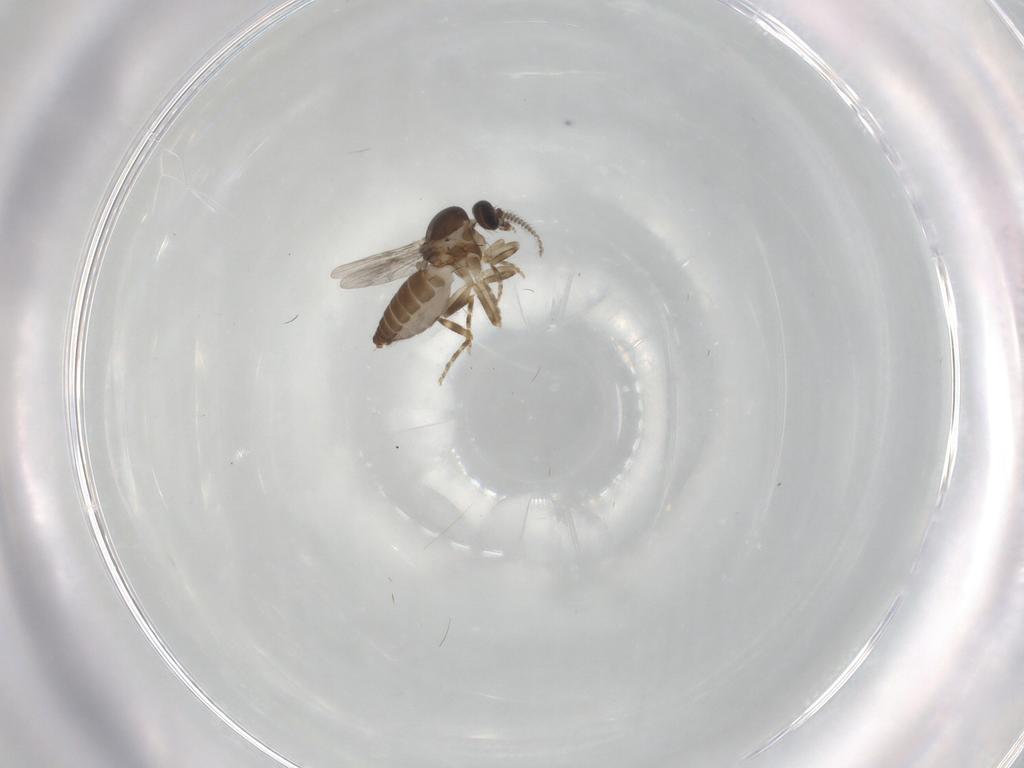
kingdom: Animalia
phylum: Arthropoda
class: Insecta
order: Diptera
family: Ceratopogonidae
